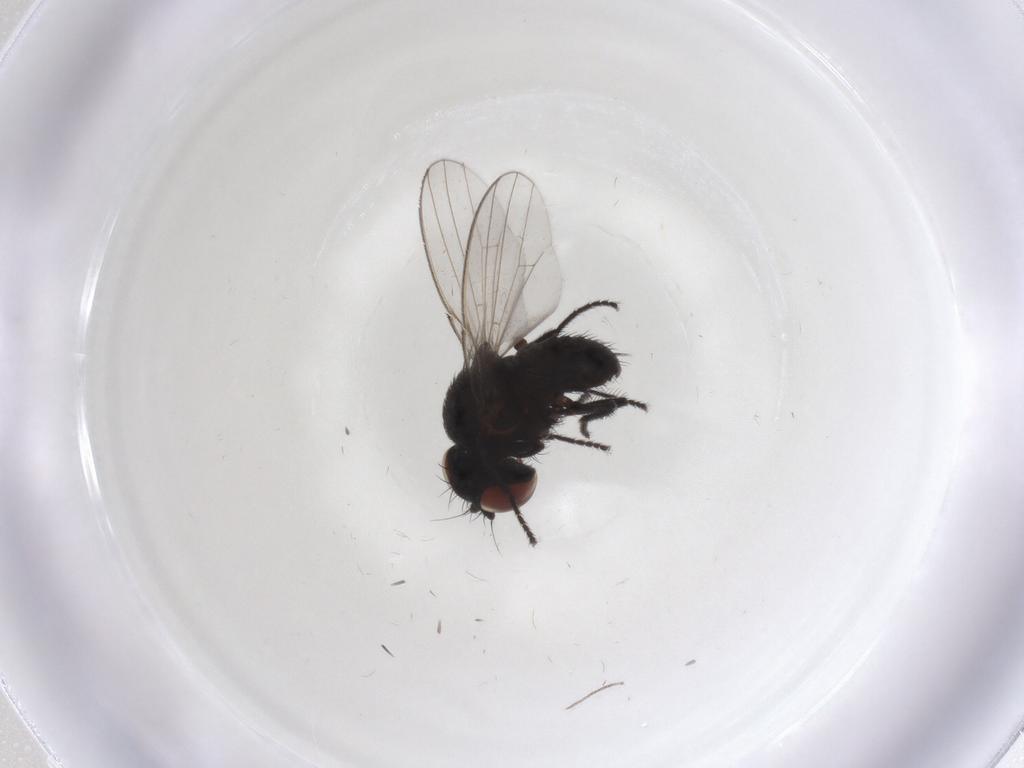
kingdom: Animalia
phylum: Arthropoda
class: Insecta
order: Diptera
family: Milichiidae
